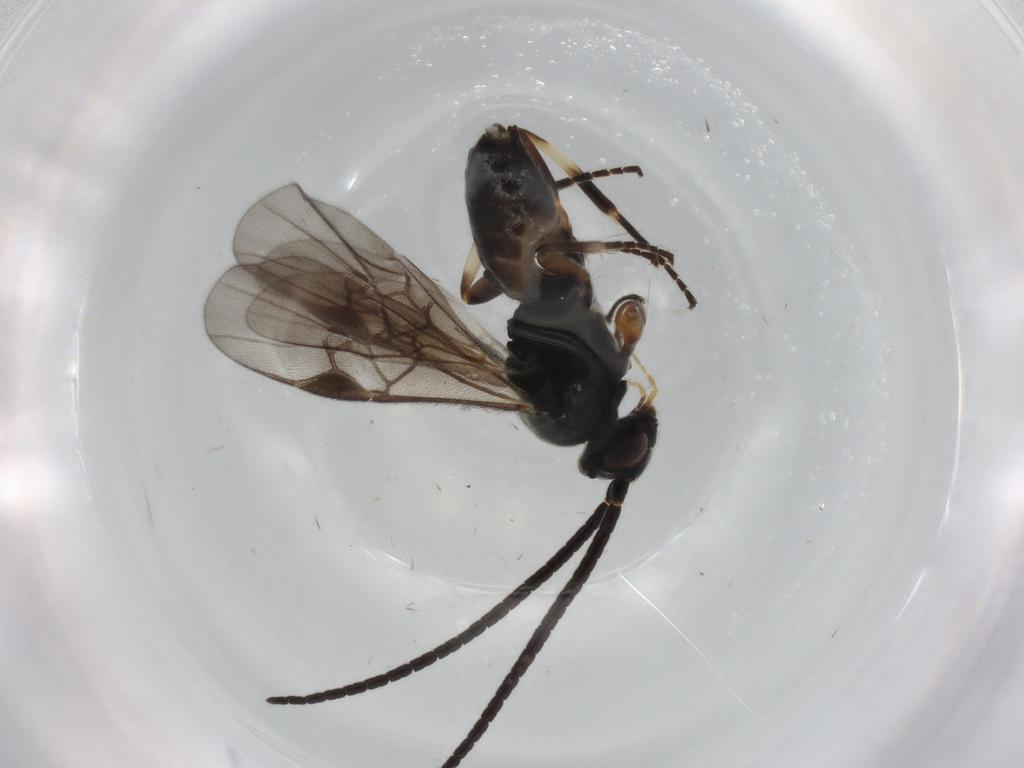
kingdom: Animalia
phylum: Arthropoda
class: Insecta
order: Hymenoptera
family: Braconidae
